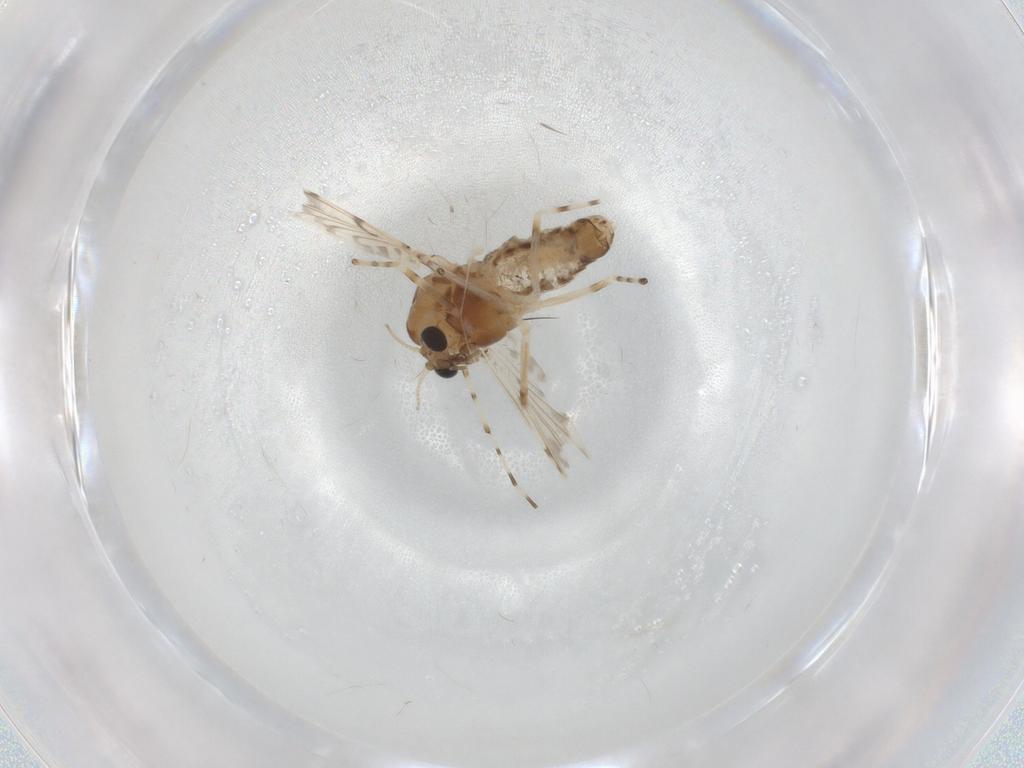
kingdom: Animalia
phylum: Arthropoda
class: Insecta
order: Diptera
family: Chironomidae
